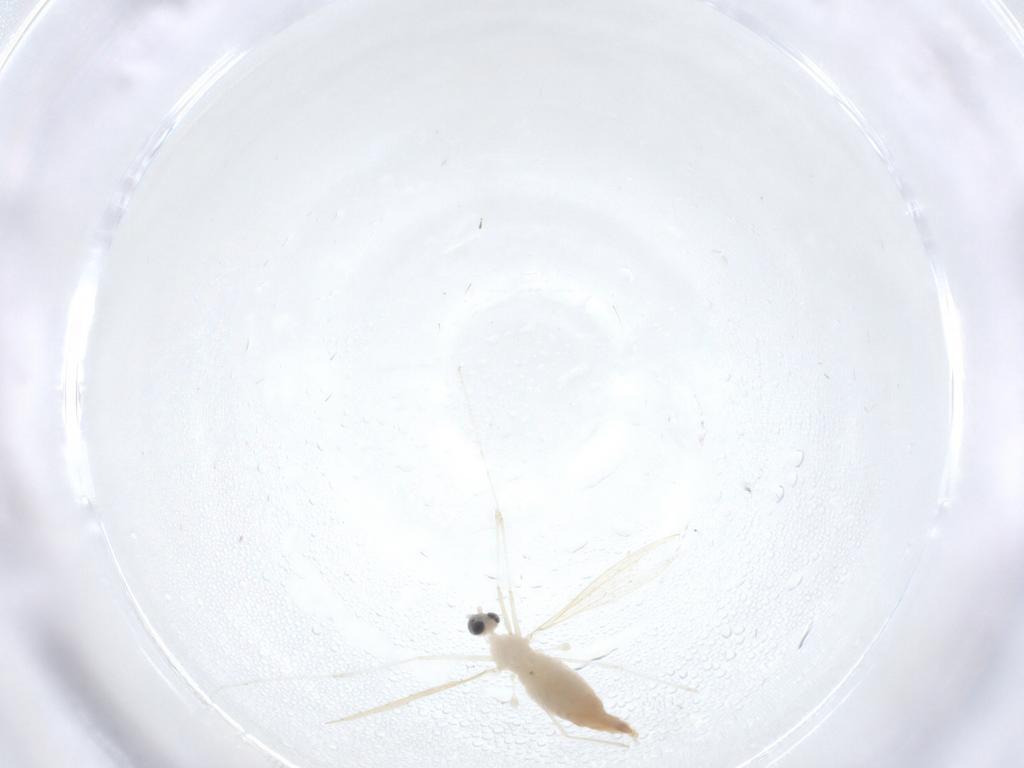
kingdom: Animalia
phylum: Arthropoda
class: Insecta
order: Diptera
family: Cecidomyiidae
